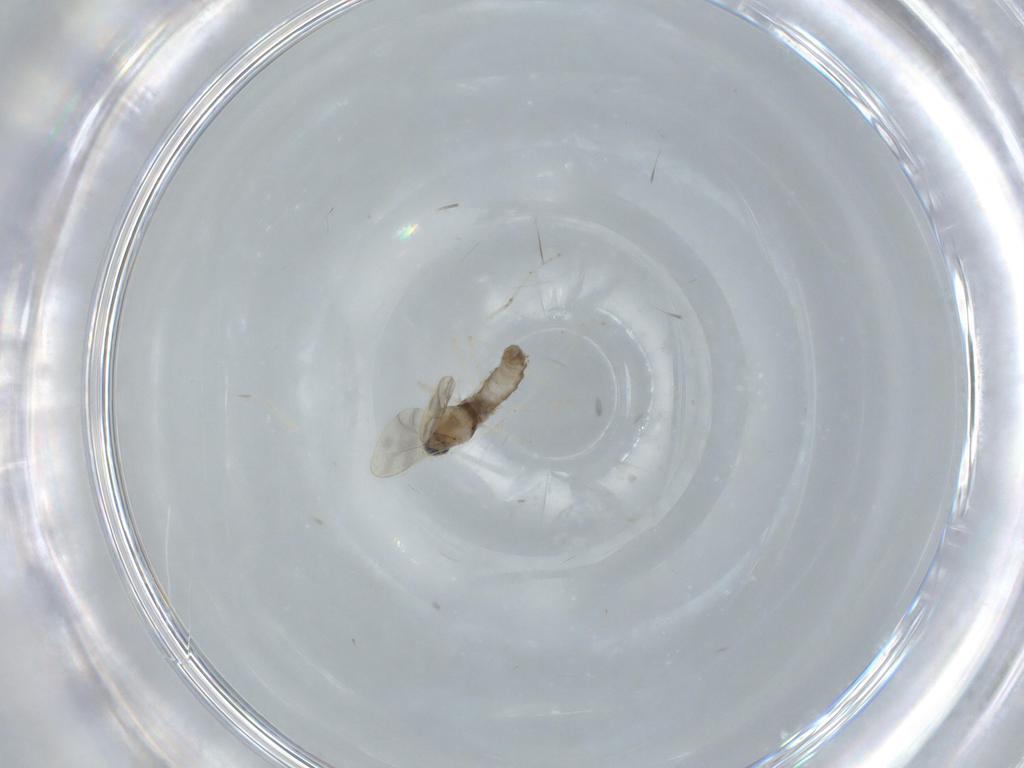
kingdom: Animalia
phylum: Arthropoda
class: Insecta
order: Diptera
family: Cecidomyiidae
